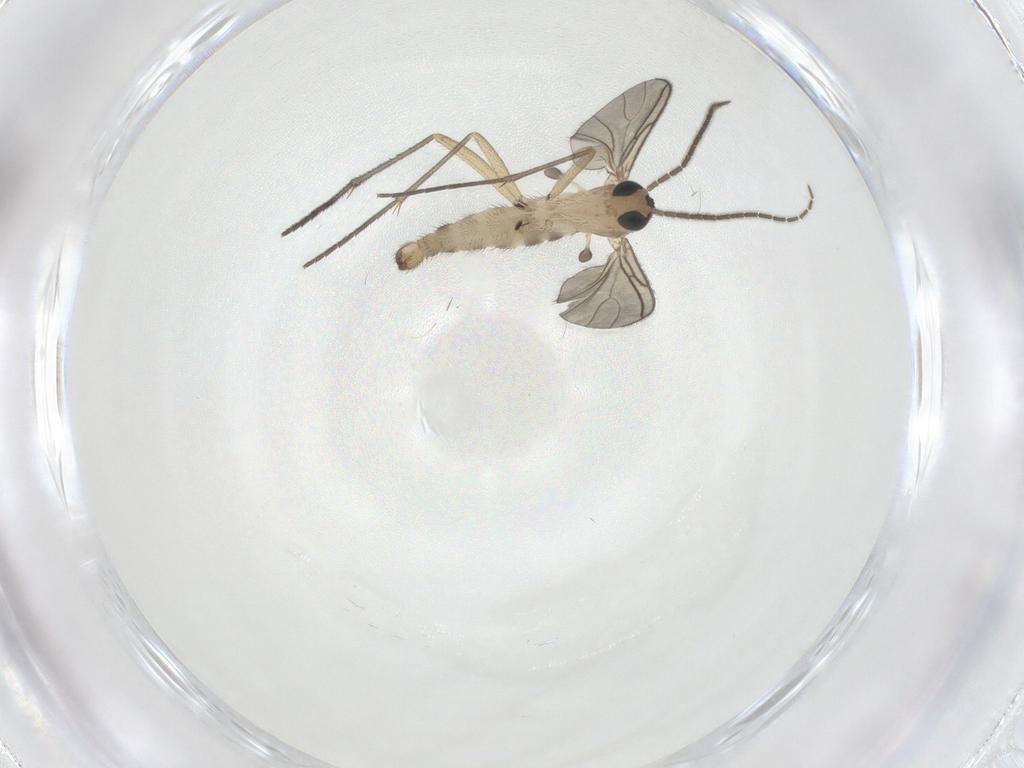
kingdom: Animalia
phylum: Arthropoda
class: Insecta
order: Diptera
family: Sciaridae
